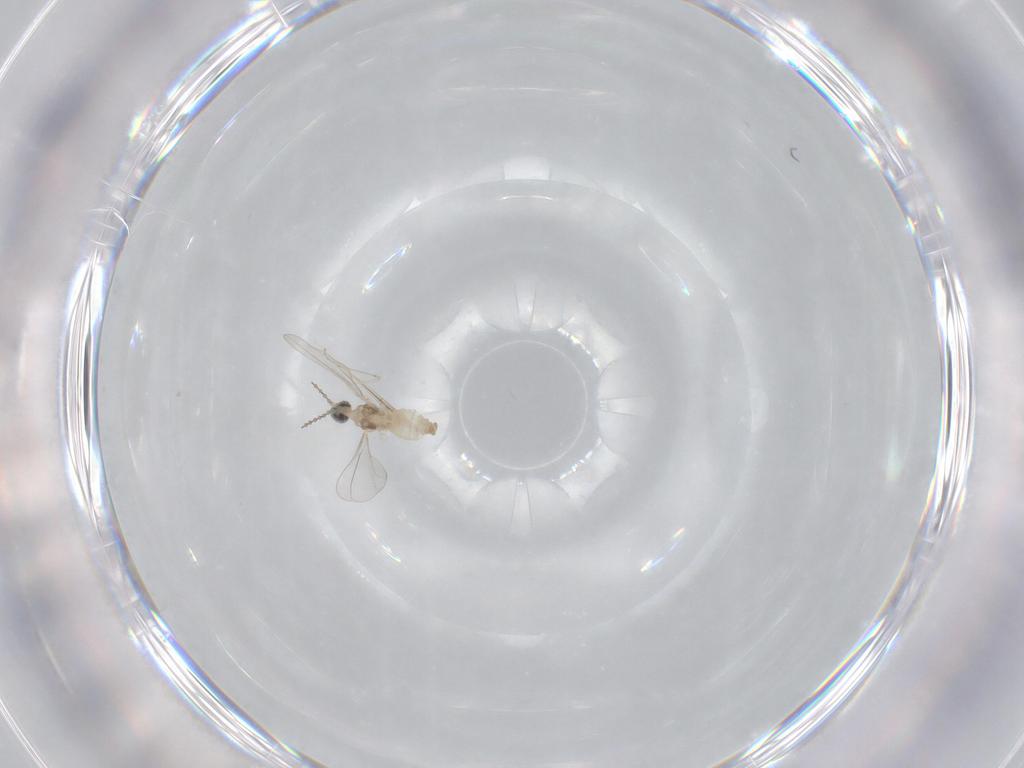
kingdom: Animalia
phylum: Arthropoda
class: Insecta
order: Diptera
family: Cecidomyiidae
